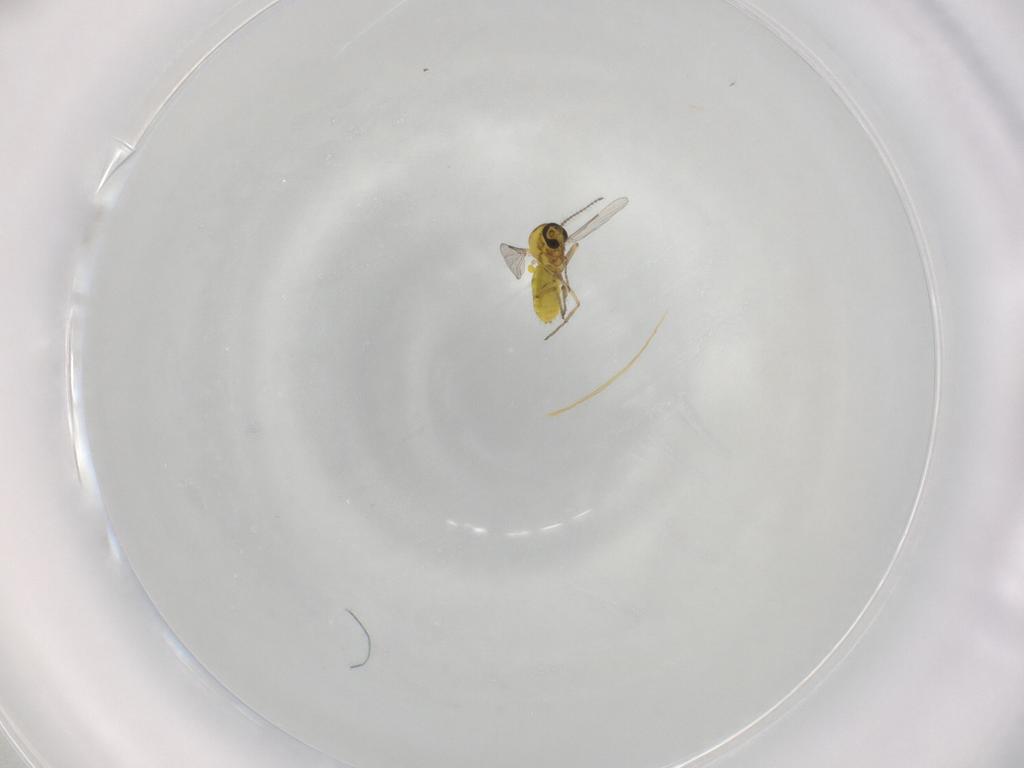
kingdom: Animalia
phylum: Arthropoda
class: Insecta
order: Diptera
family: Ceratopogonidae
